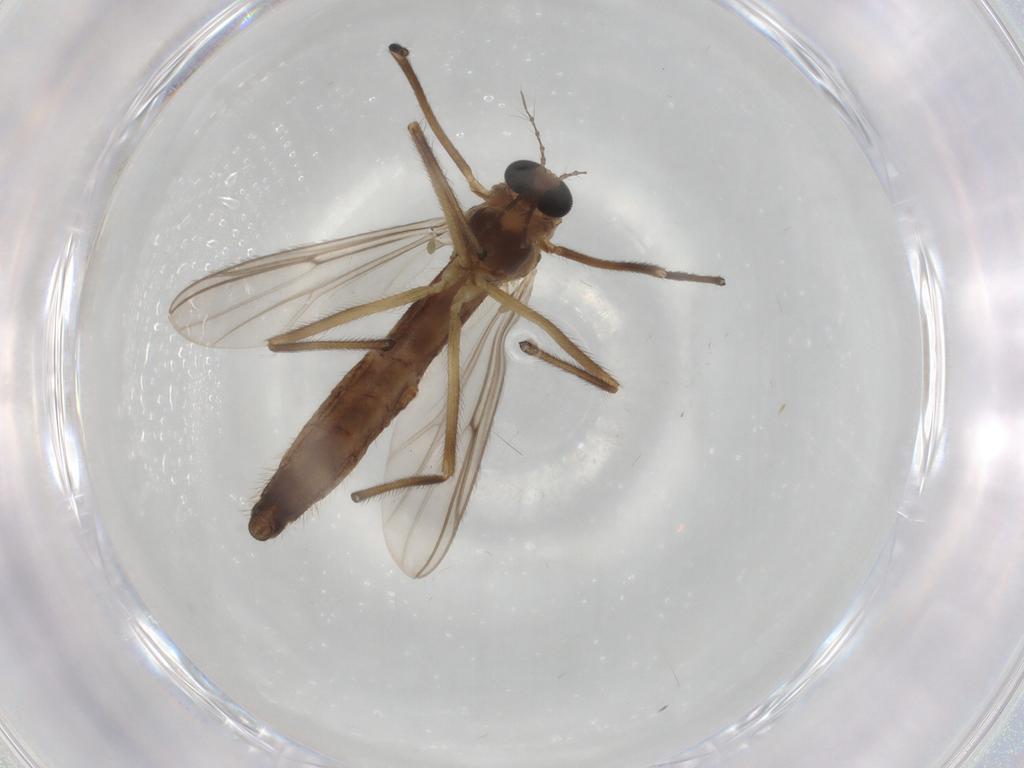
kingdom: Animalia
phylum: Arthropoda
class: Insecta
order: Diptera
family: Chironomidae
